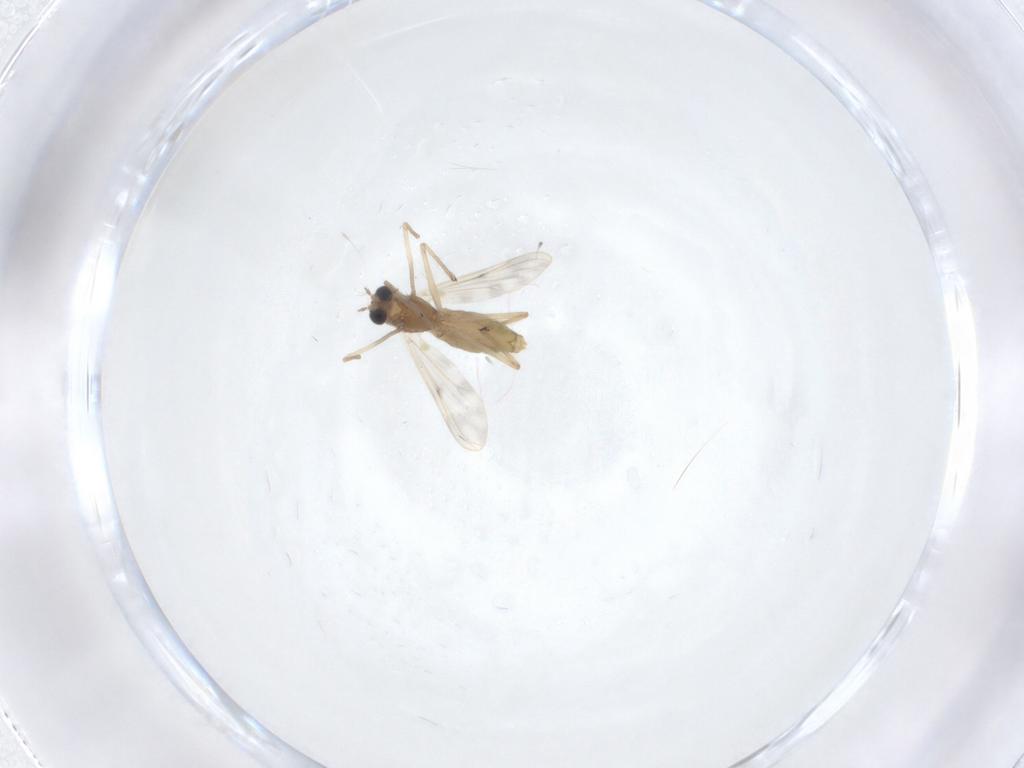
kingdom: Animalia
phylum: Arthropoda
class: Insecta
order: Diptera
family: Chironomidae
